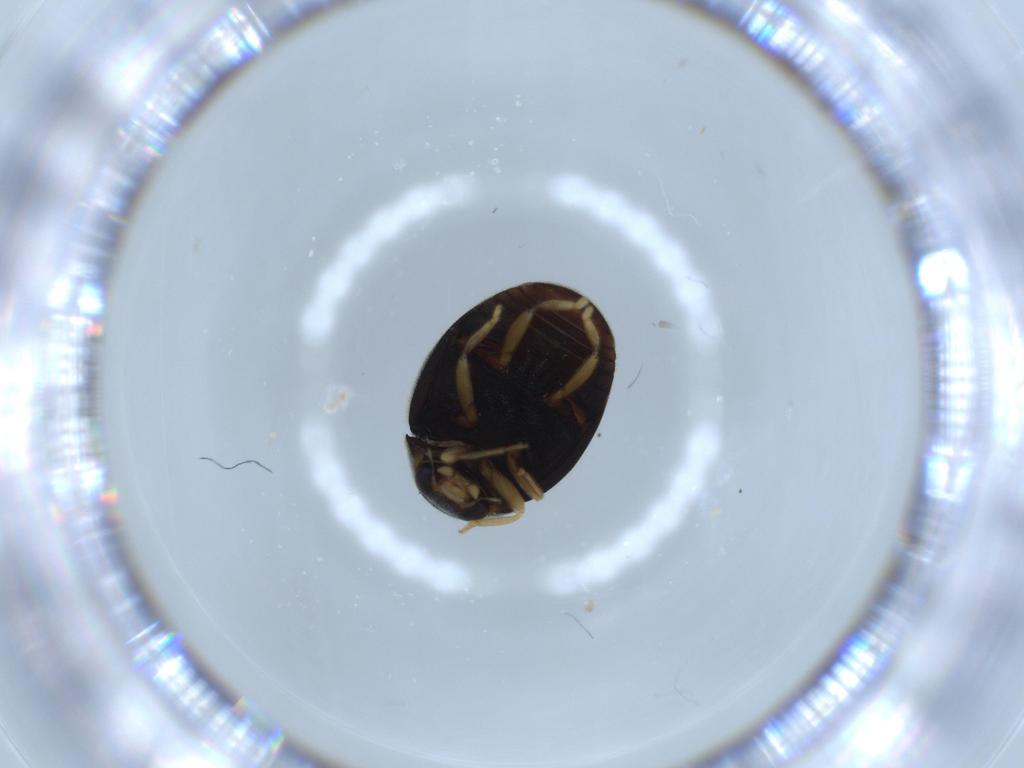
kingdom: Animalia
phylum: Arthropoda
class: Insecta
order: Coleoptera
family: Coccinellidae
